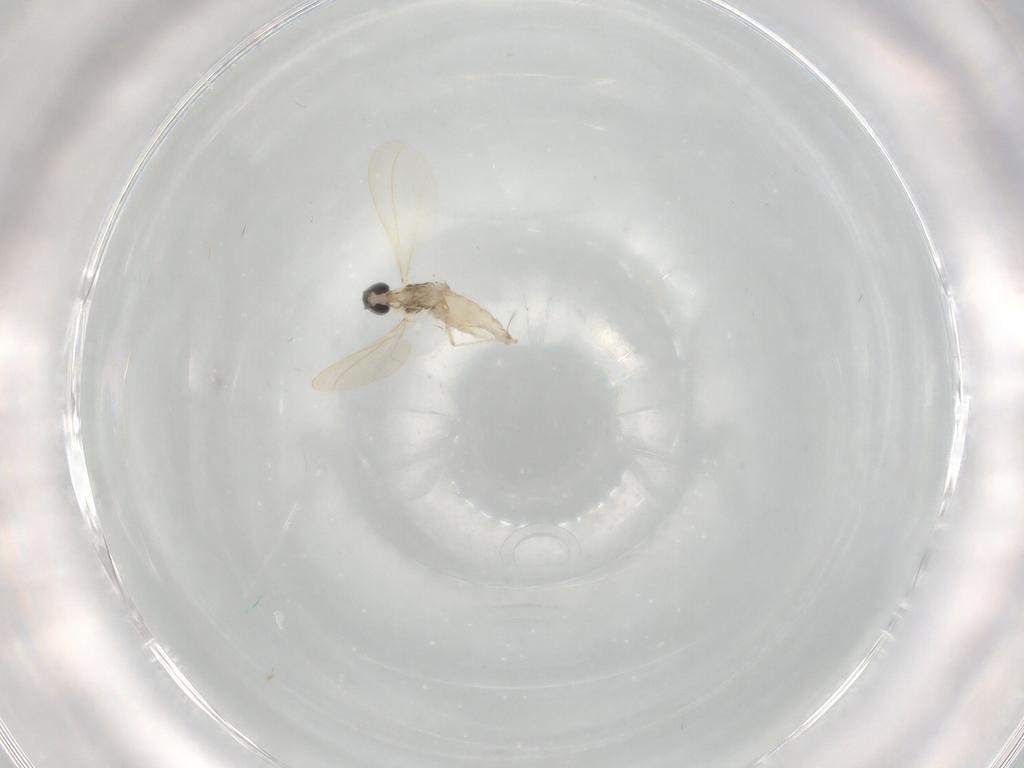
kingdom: Animalia
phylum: Arthropoda
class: Insecta
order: Diptera
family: Cecidomyiidae
